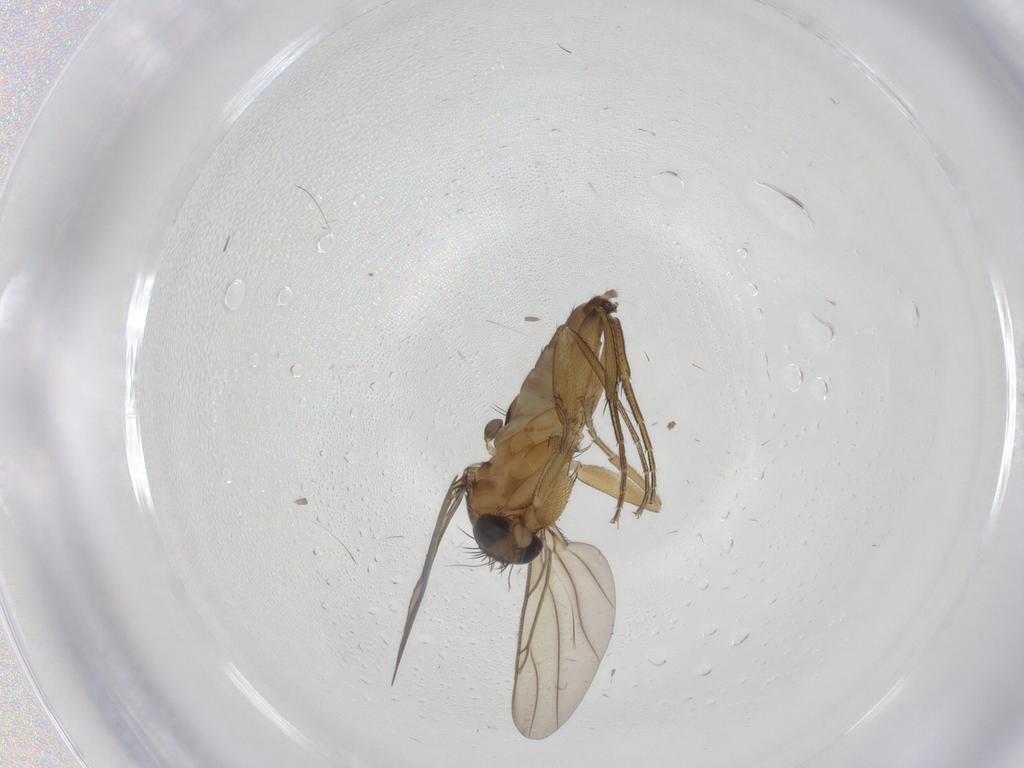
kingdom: Animalia
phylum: Arthropoda
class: Insecta
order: Diptera
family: Phoridae
